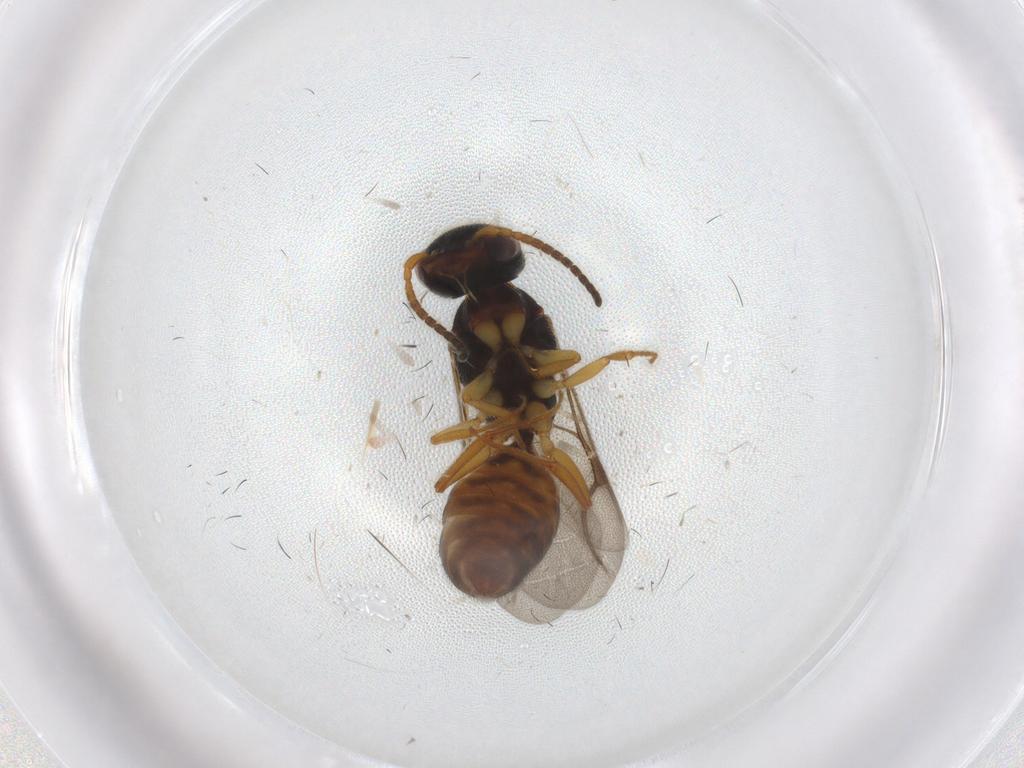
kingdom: Animalia
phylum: Arthropoda
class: Insecta
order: Hymenoptera
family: Bethylidae
